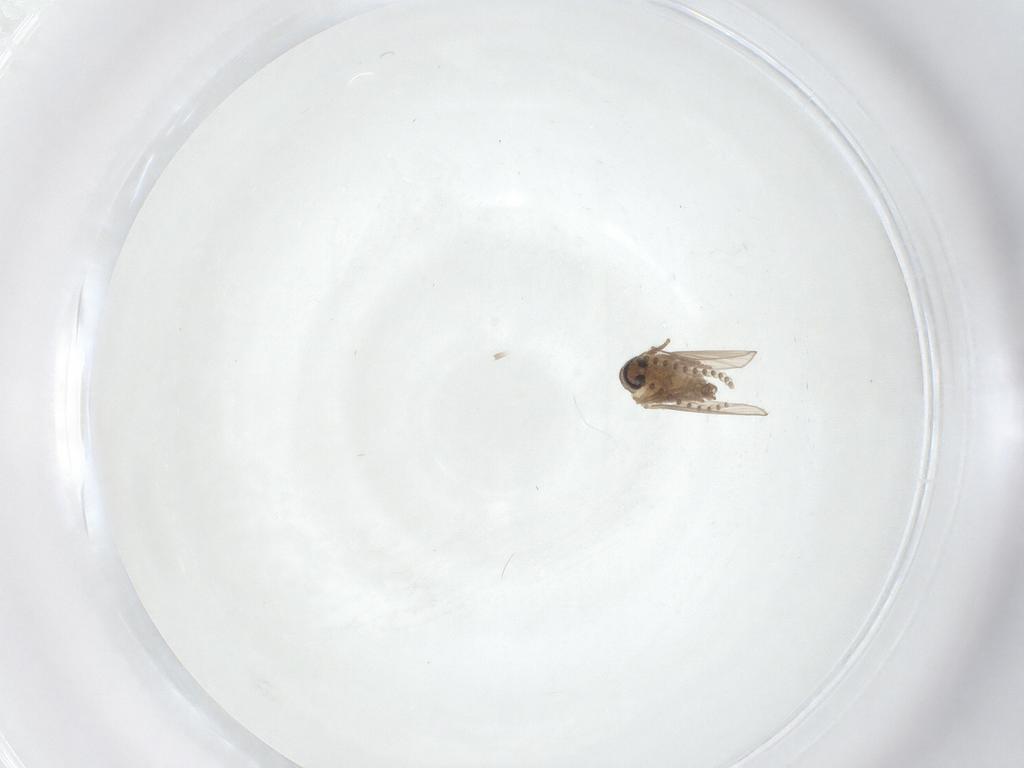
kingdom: Animalia
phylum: Arthropoda
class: Insecta
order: Diptera
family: Psychodidae
